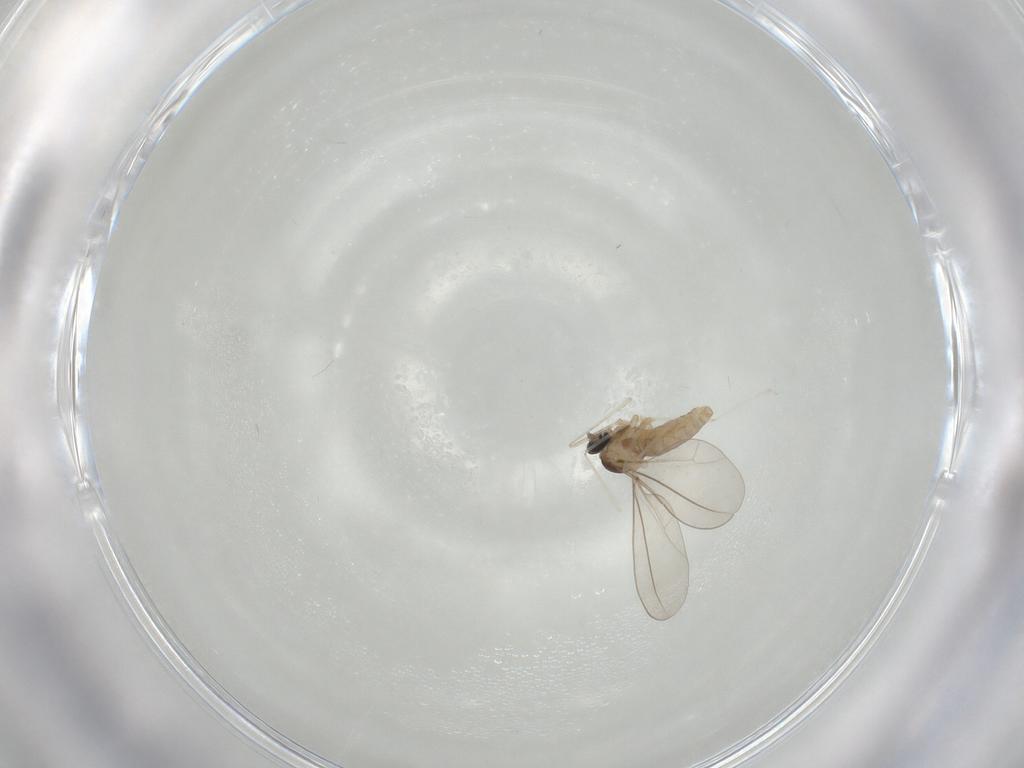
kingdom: Animalia
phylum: Arthropoda
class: Insecta
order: Diptera
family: Cecidomyiidae
